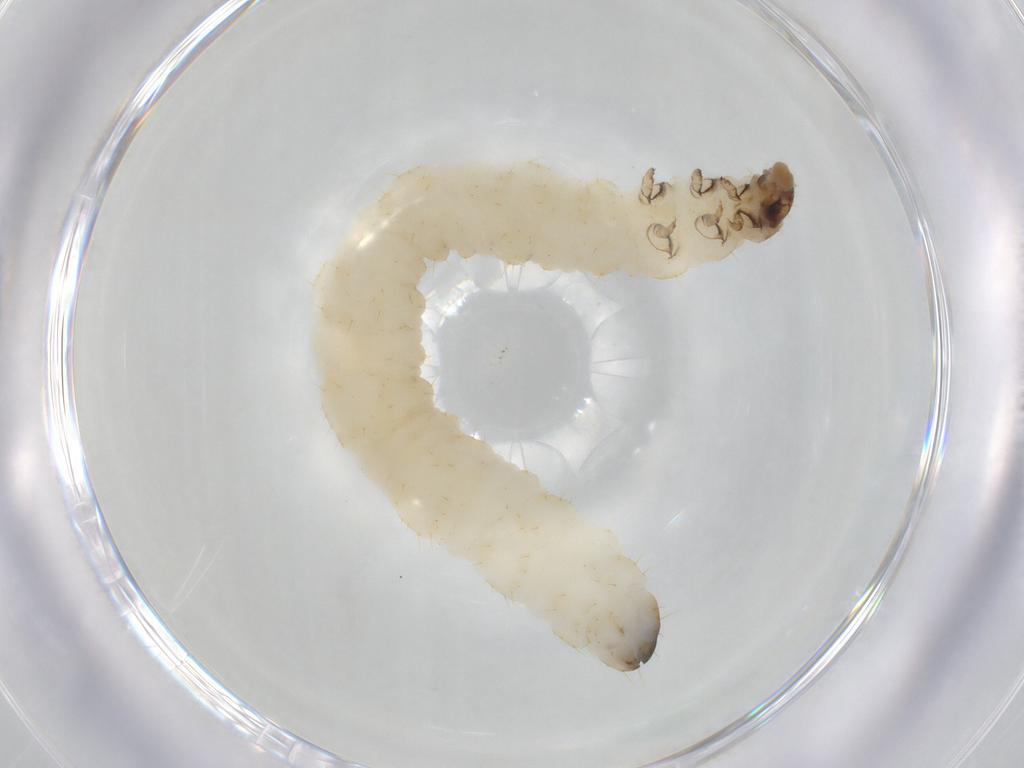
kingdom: Animalia
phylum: Arthropoda
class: Insecta
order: Coleoptera
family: Chrysomelidae
